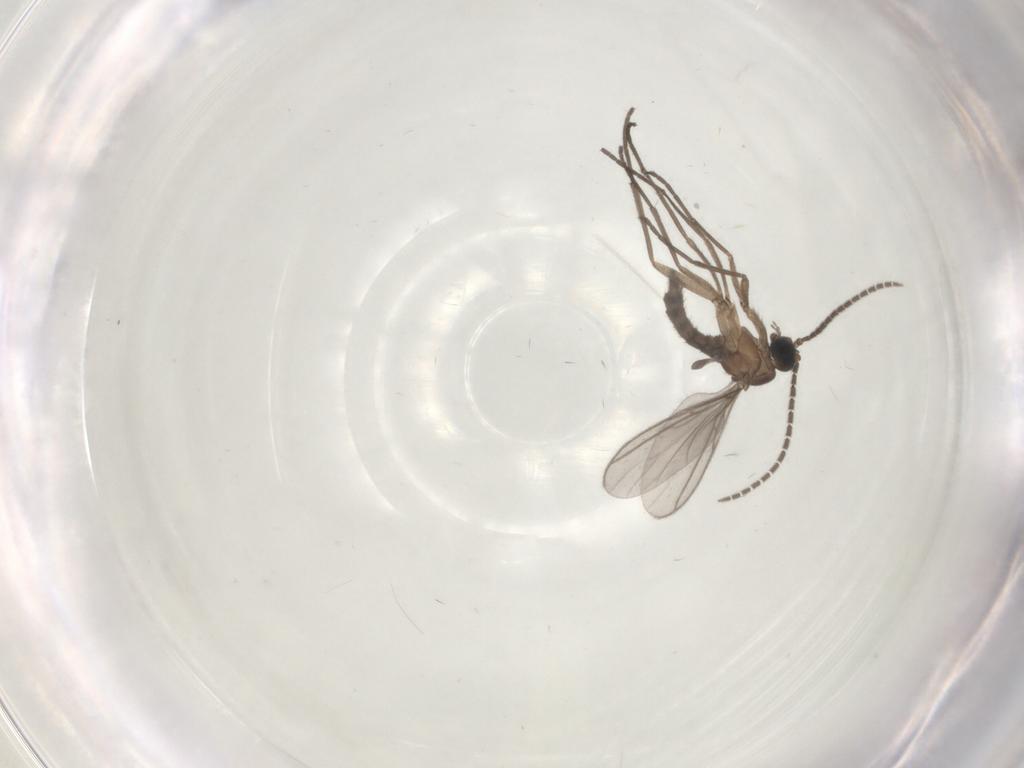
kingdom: Animalia
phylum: Arthropoda
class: Insecta
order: Diptera
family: Sciaridae
